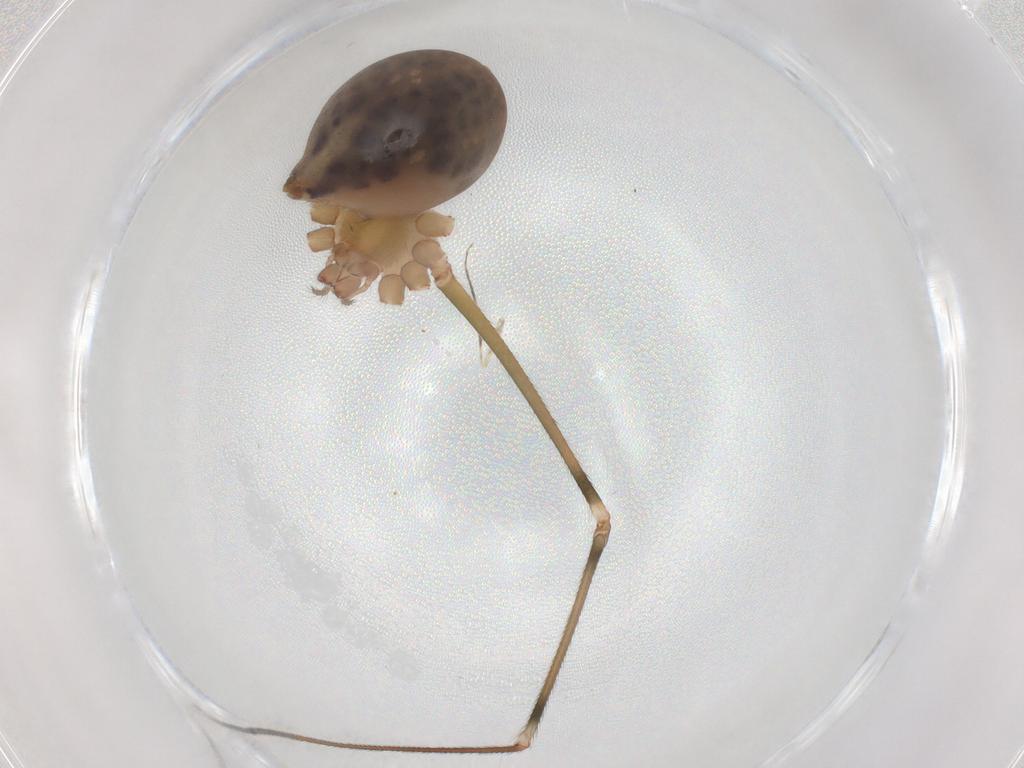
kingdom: Animalia
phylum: Arthropoda
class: Arachnida
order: Araneae
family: Pholcidae
